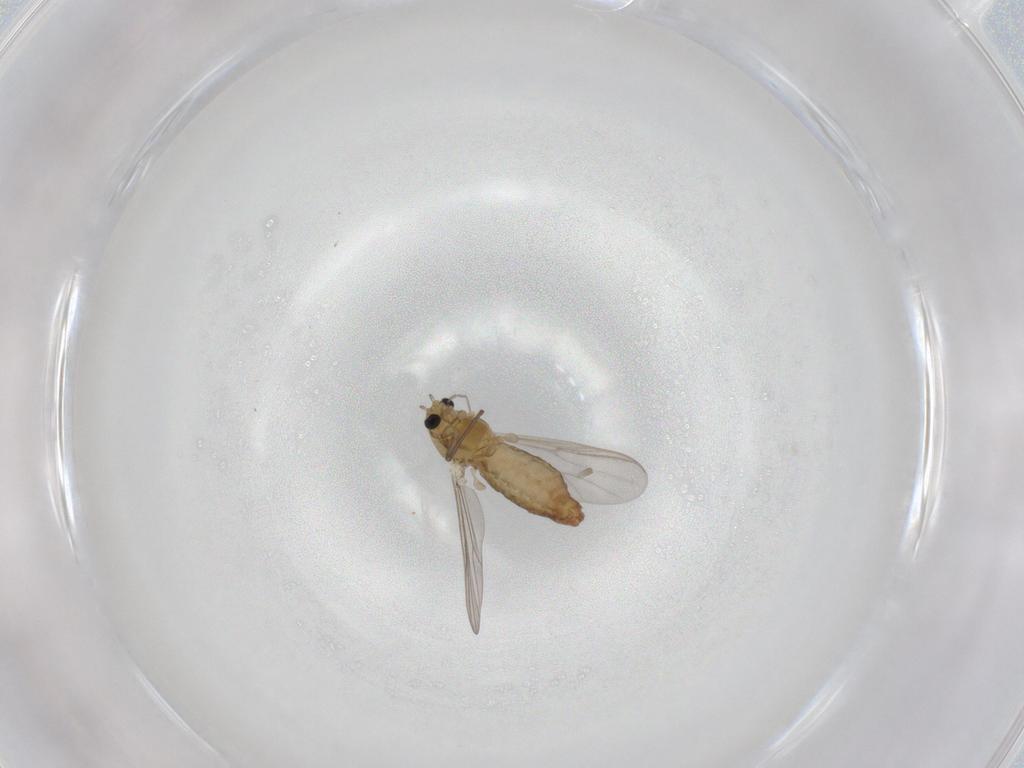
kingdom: Animalia
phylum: Arthropoda
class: Insecta
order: Diptera
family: Chironomidae
